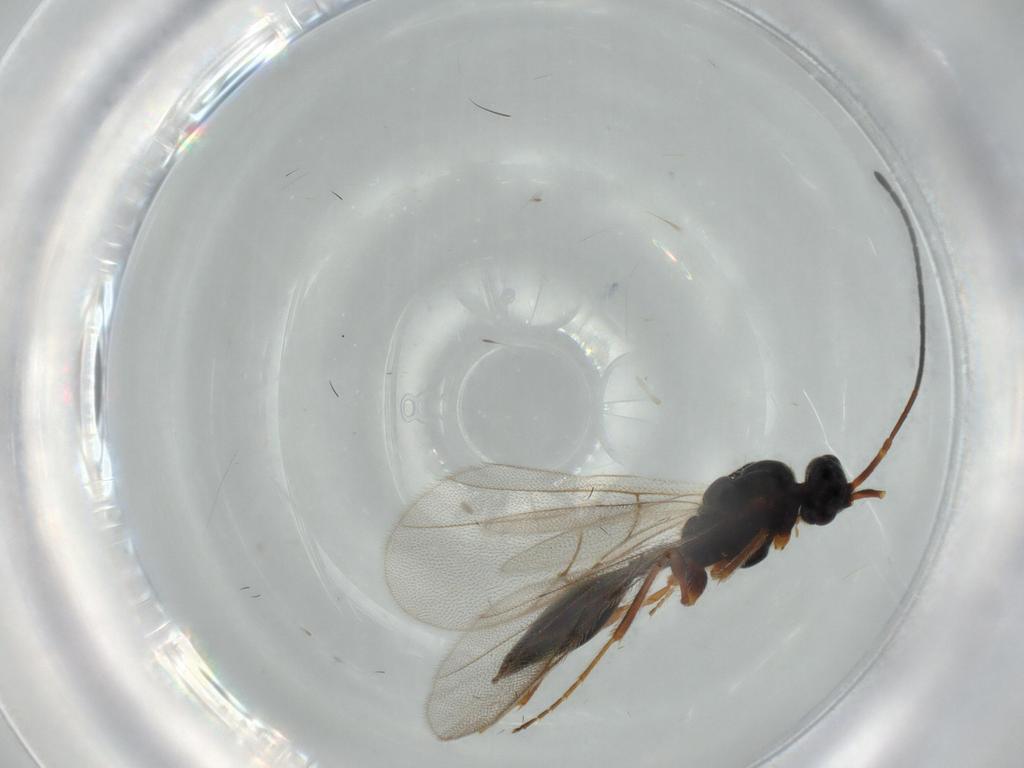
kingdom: Animalia
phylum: Arthropoda
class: Insecta
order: Hymenoptera
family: Diapriidae
